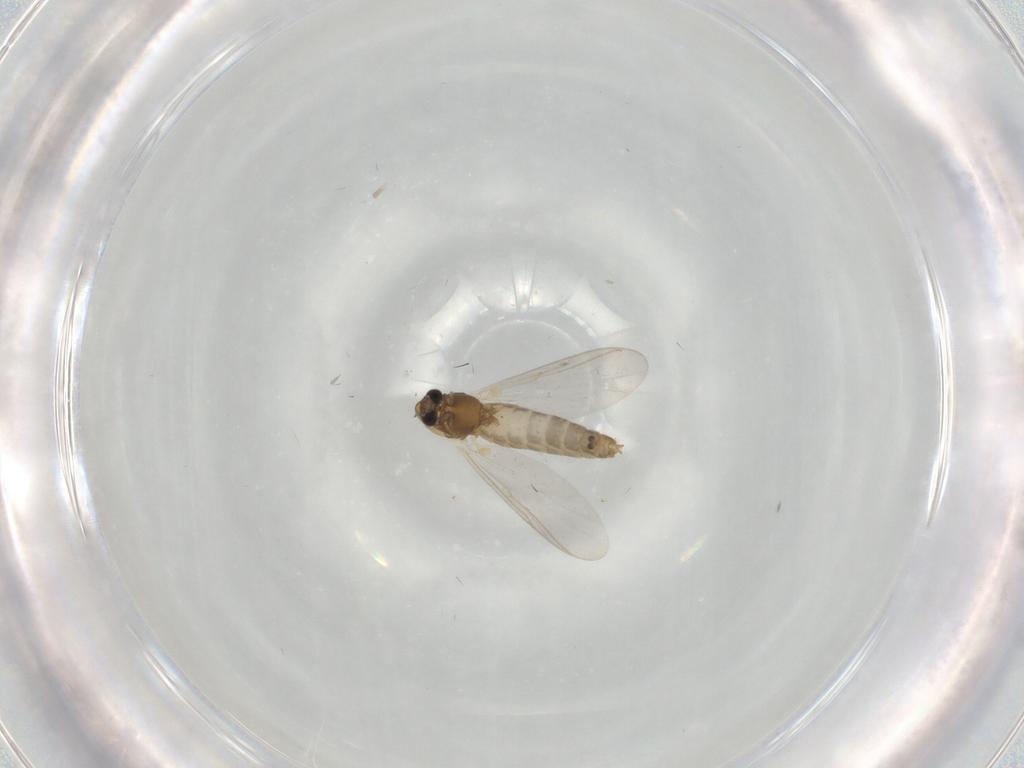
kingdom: Animalia
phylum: Arthropoda
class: Insecta
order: Diptera
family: Chironomidae
